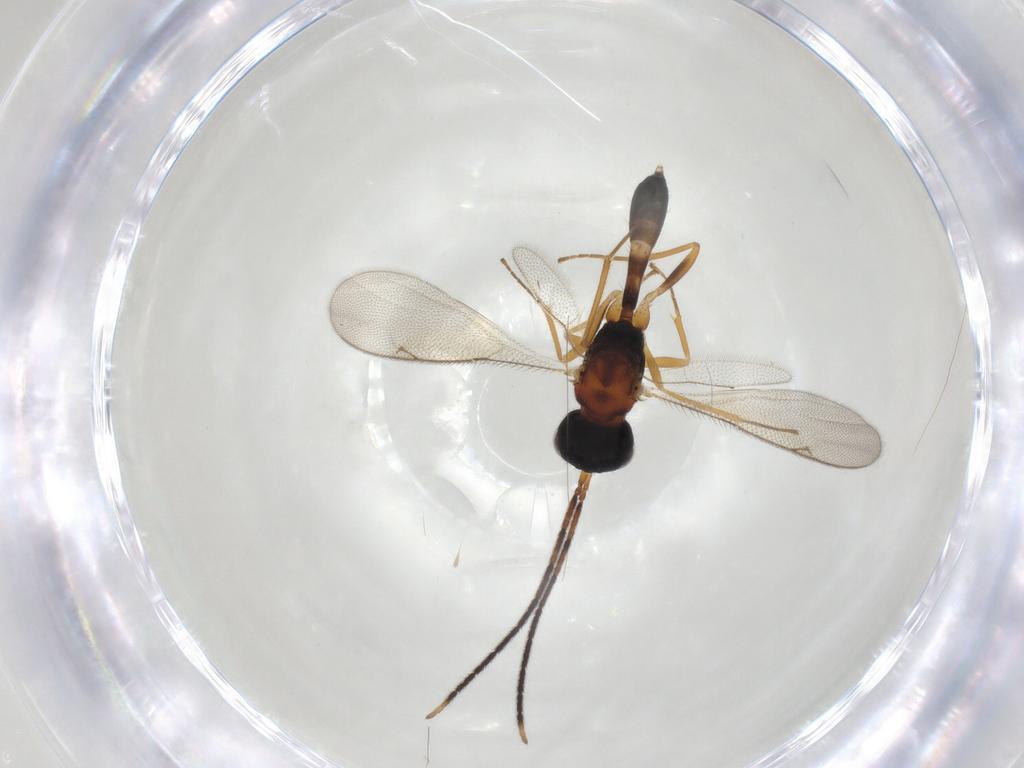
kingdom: Animalia
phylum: Arthropoda
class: Insecta
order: Hymenoptera
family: Pteromalidae
